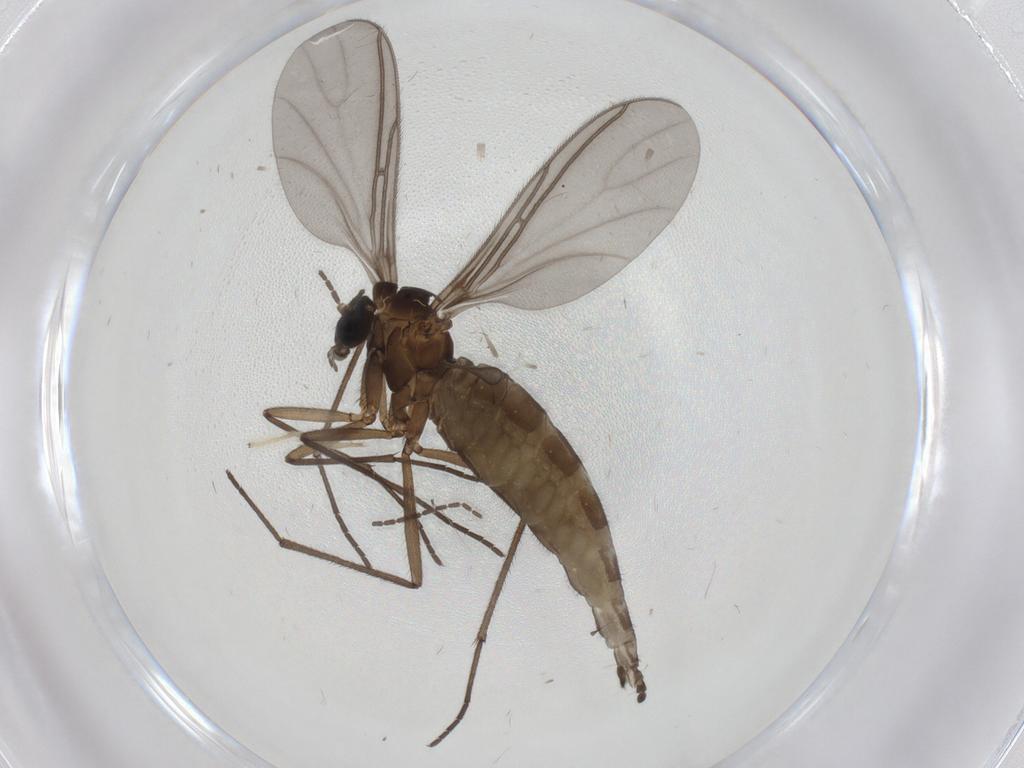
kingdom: Animalia
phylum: Arthropoda
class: Insecta
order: Diptera
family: Sciaridae
